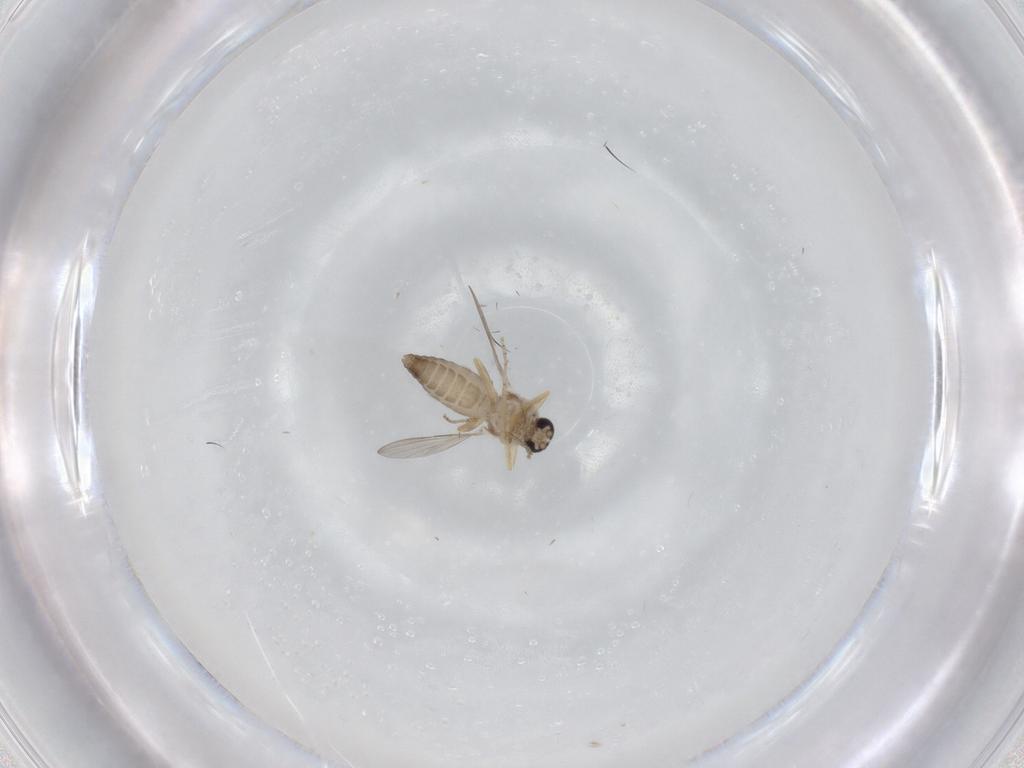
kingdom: Animalia
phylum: Arthropoda
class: Insecta
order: Diptera
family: Ceratopogonidae
